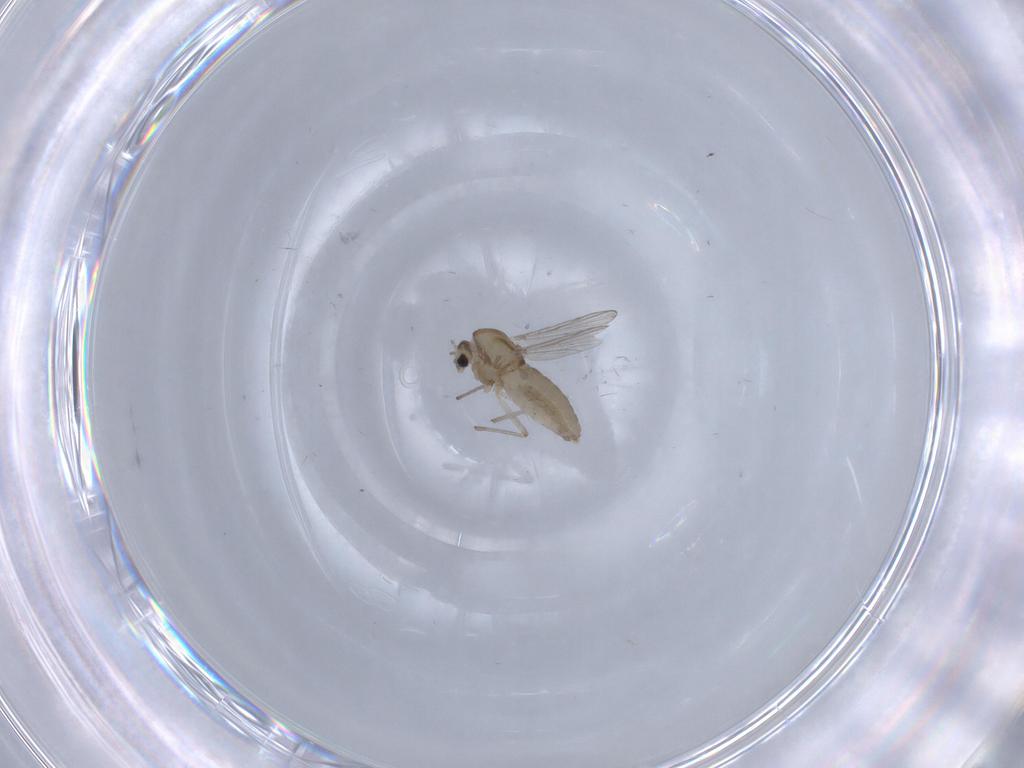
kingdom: Animalia
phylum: Arthropoda
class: Insecta
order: Diptera
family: Chironomidae
